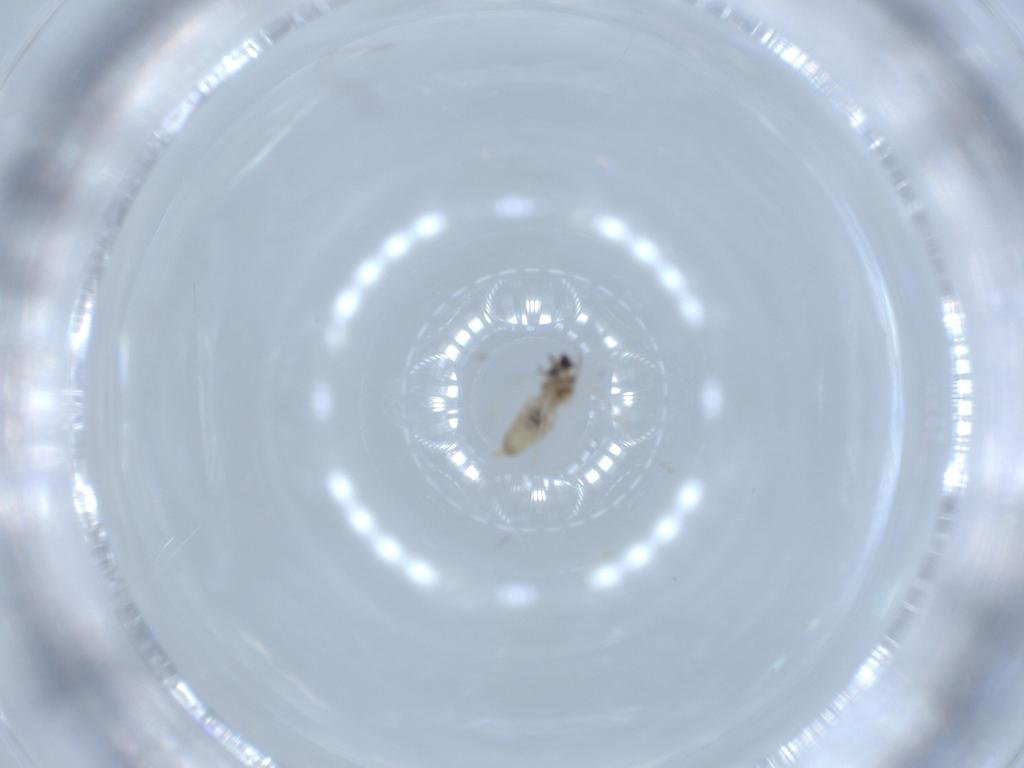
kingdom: Animalia
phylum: Arthropoda
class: Insecta
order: Diptera
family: Cecidomyiidae
